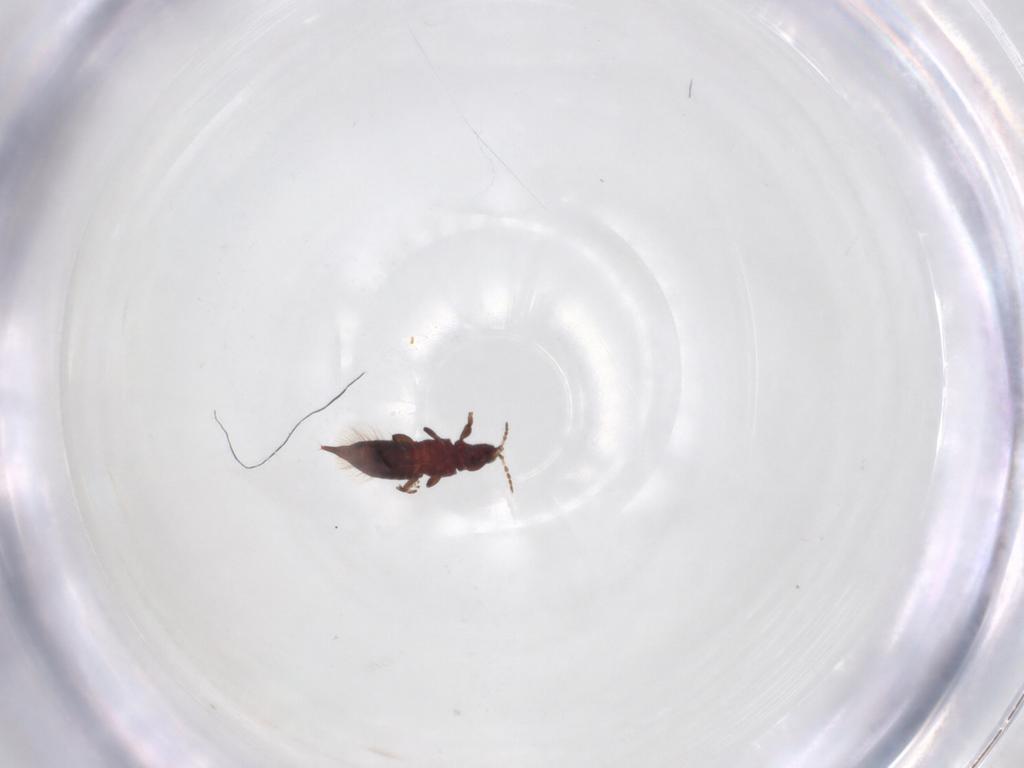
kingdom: Animalia
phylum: Arthropoda
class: Insecta
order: Thysanoptera
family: Phlaeothripidae
